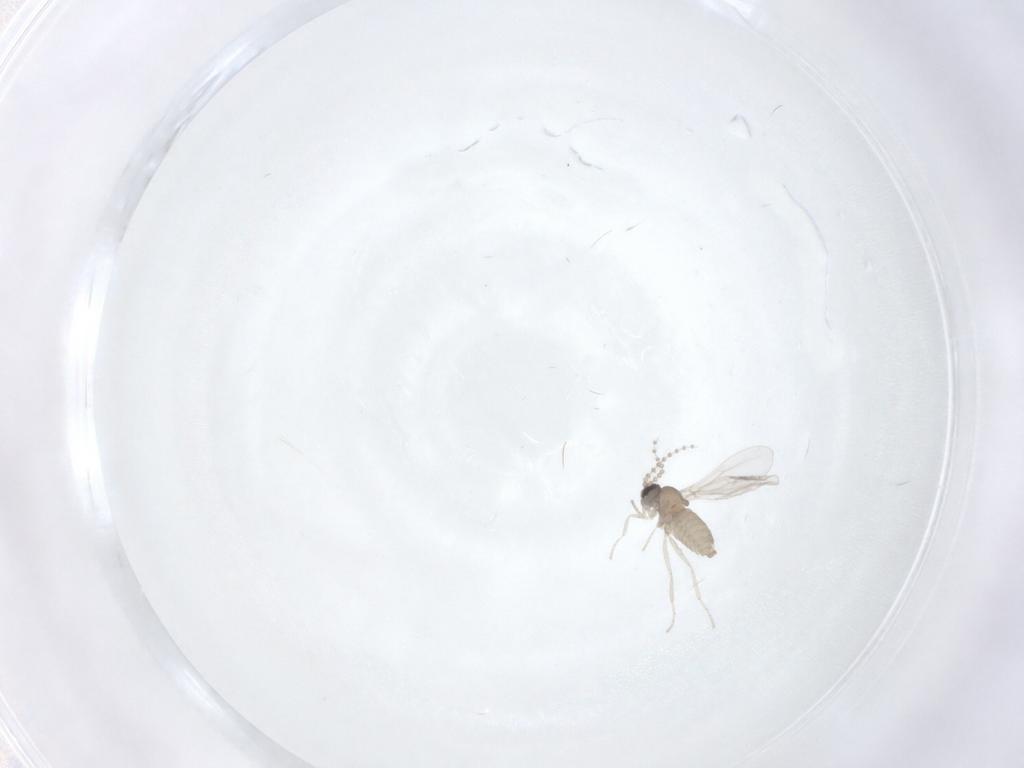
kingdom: Animalia
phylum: Arthropoda
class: Insecta
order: Diptera
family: Cecidomyiidae
